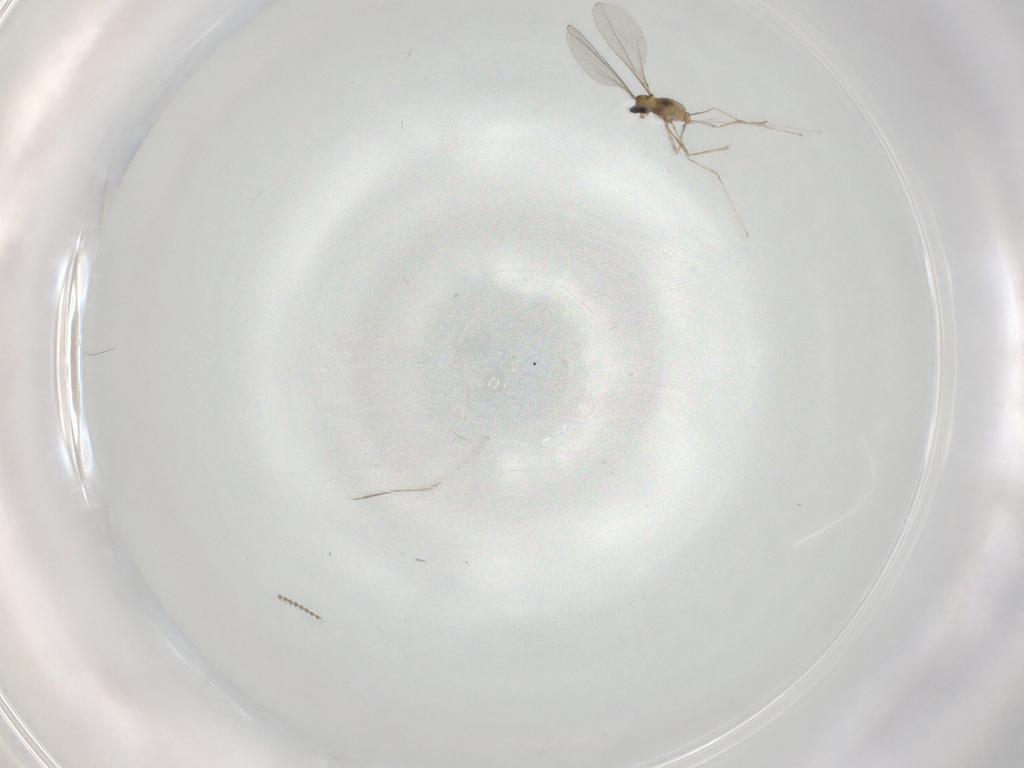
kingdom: Animalia
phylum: Arthropoda
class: Insecta
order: Diptera
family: Cecidomyiidae
